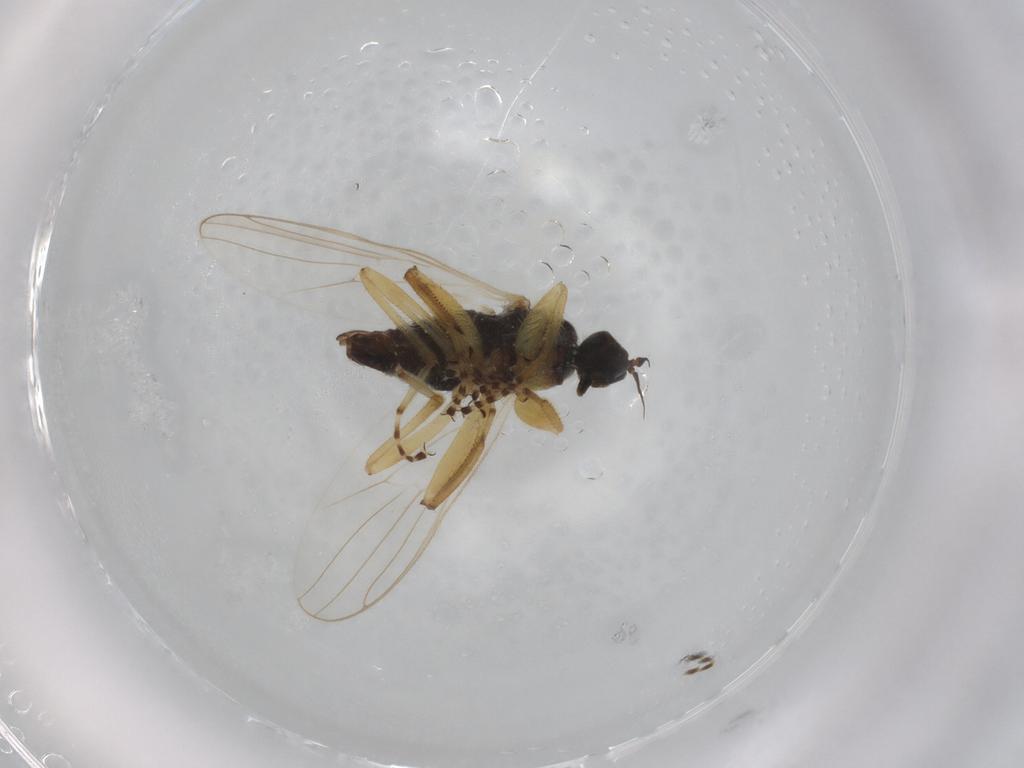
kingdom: Animalia
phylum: Arthropoda
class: Insecta
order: Diptera
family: Hybotidae
